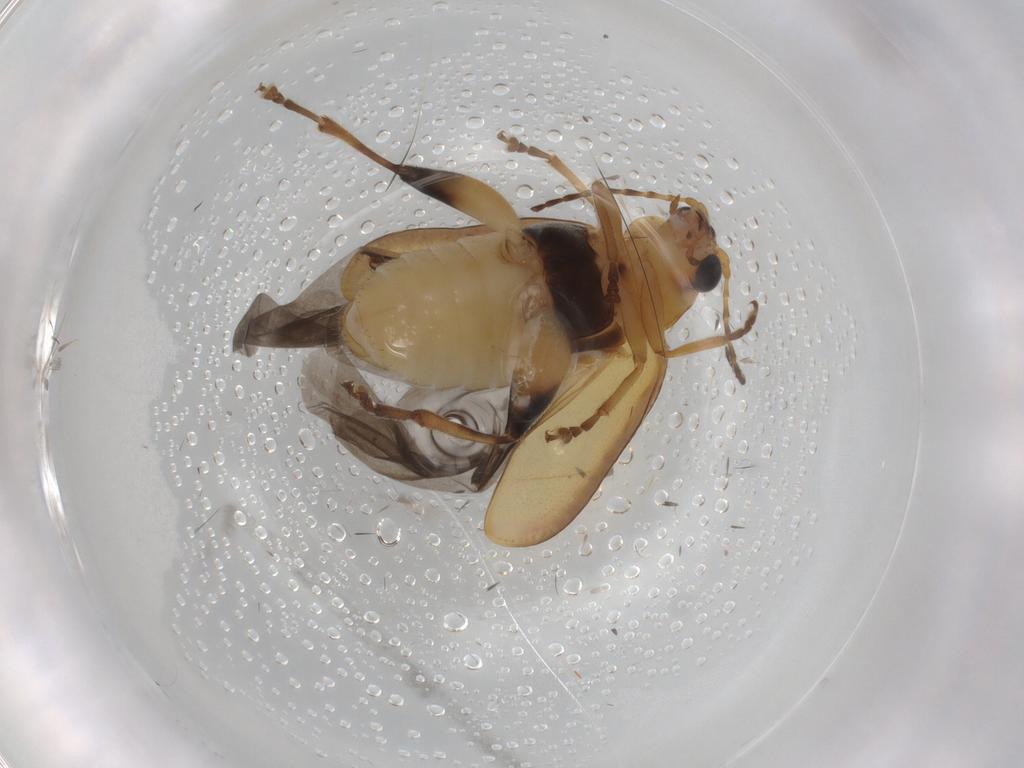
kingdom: Animalia
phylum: Arthropoda
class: Insecta
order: Coleoptera
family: Chrysomelidae
